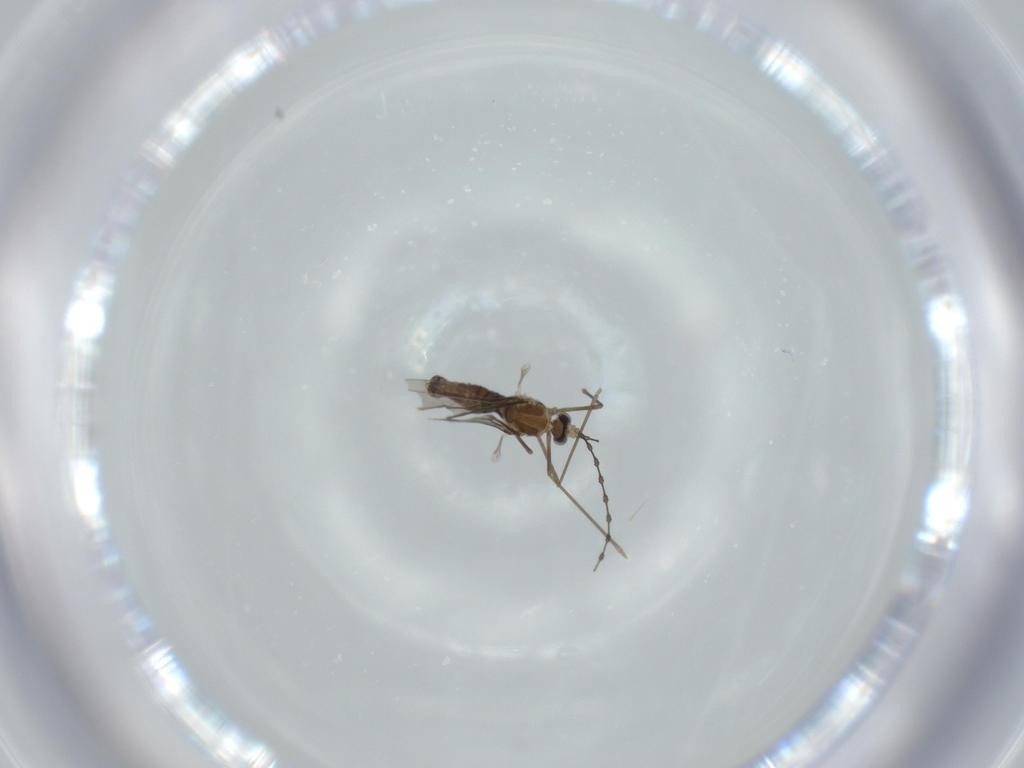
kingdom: Animalia
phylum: Arthropoda
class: Insecta
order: Diptera
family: Cecidomyiidae
